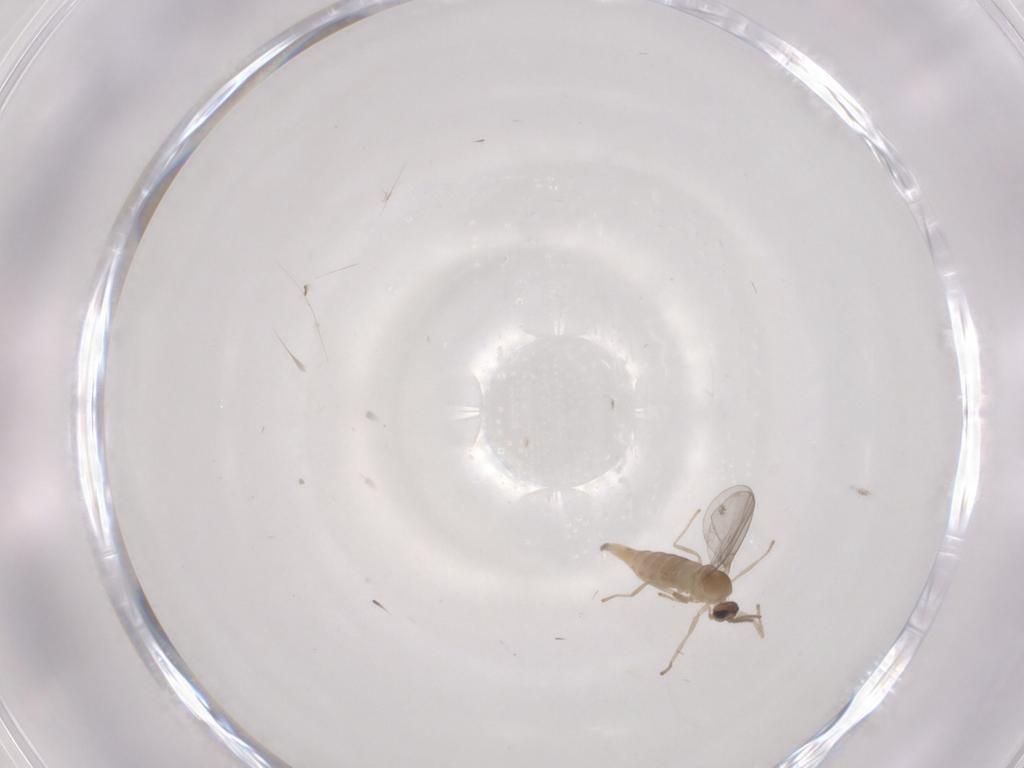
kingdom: Animalia
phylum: Arthropoda
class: Insecta
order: Diptera
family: Cecidomyiidae
